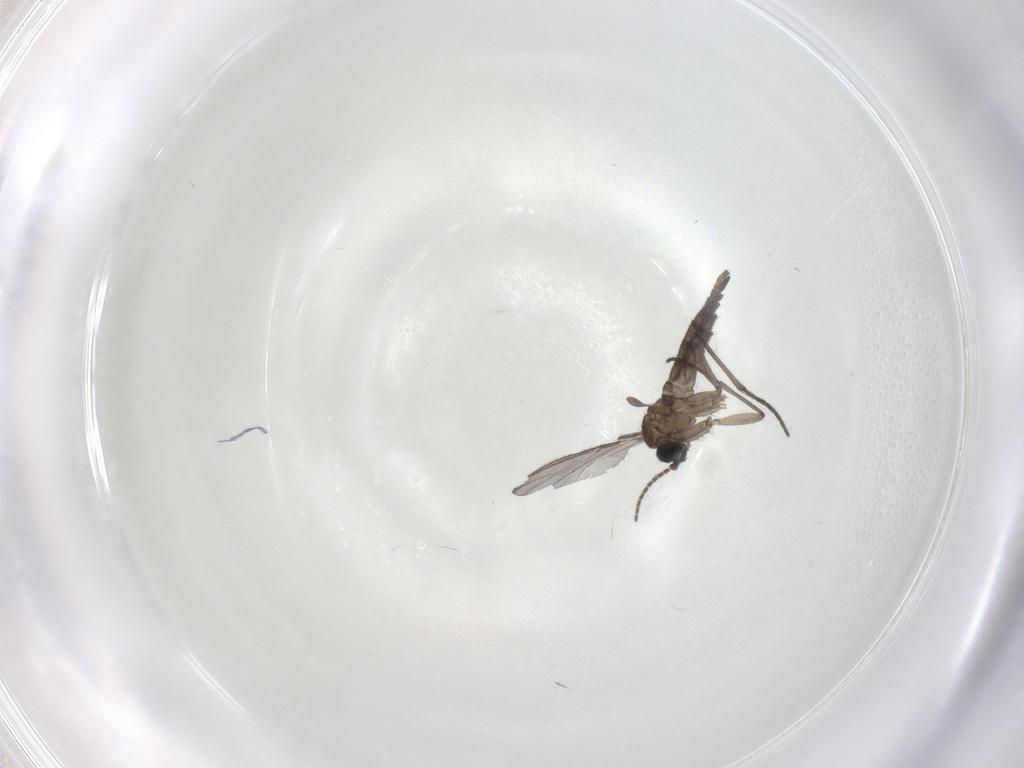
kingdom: Animalia
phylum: Arthropoda
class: Insecta
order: Diptera
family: Sciaridae
